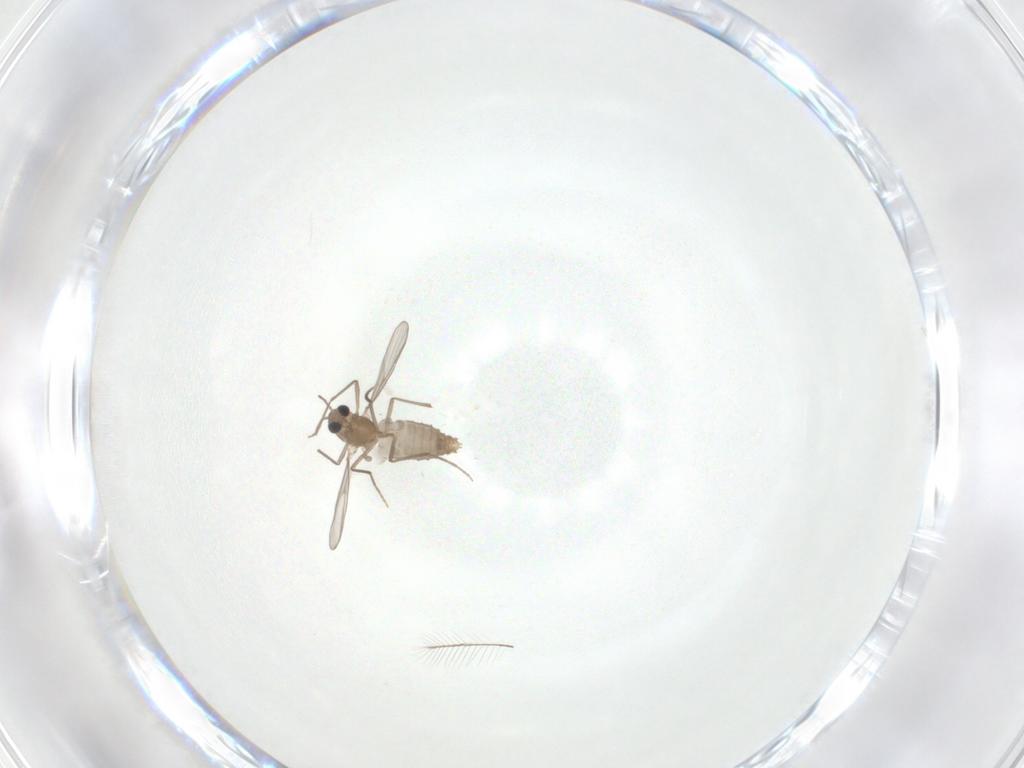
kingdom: Animalia
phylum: Arthropoda
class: Insecta
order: Diptera
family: Chironomidae
